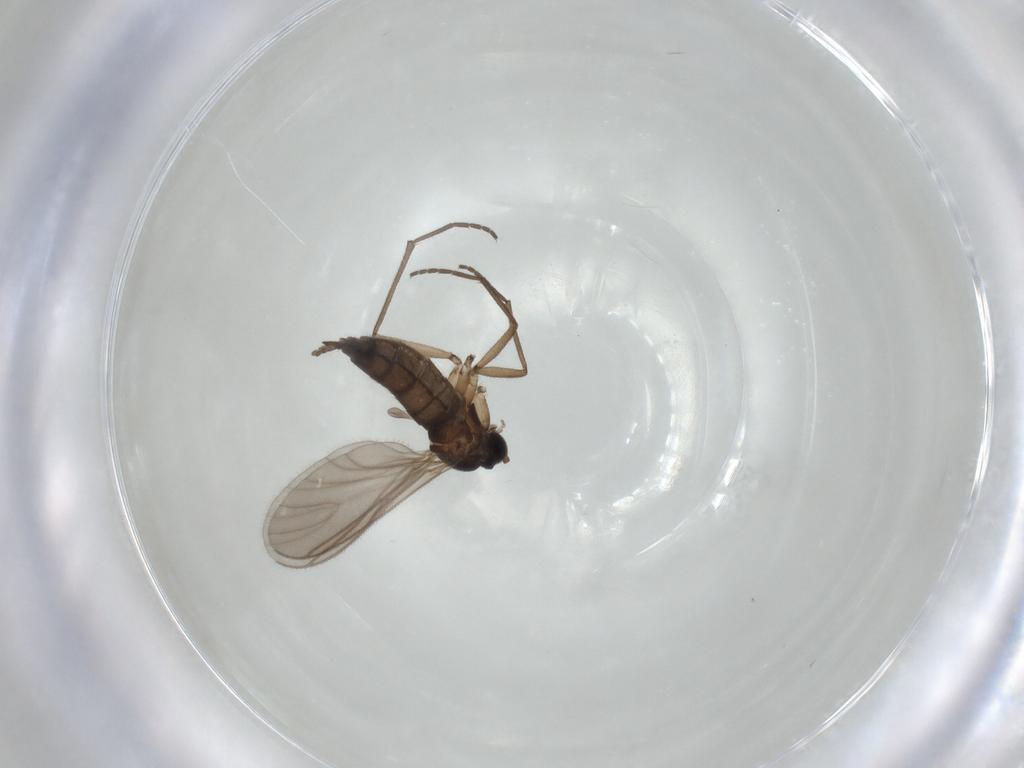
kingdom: Animalia
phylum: Arthropoda
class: Insecta
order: Diptera
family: Sciaridae
